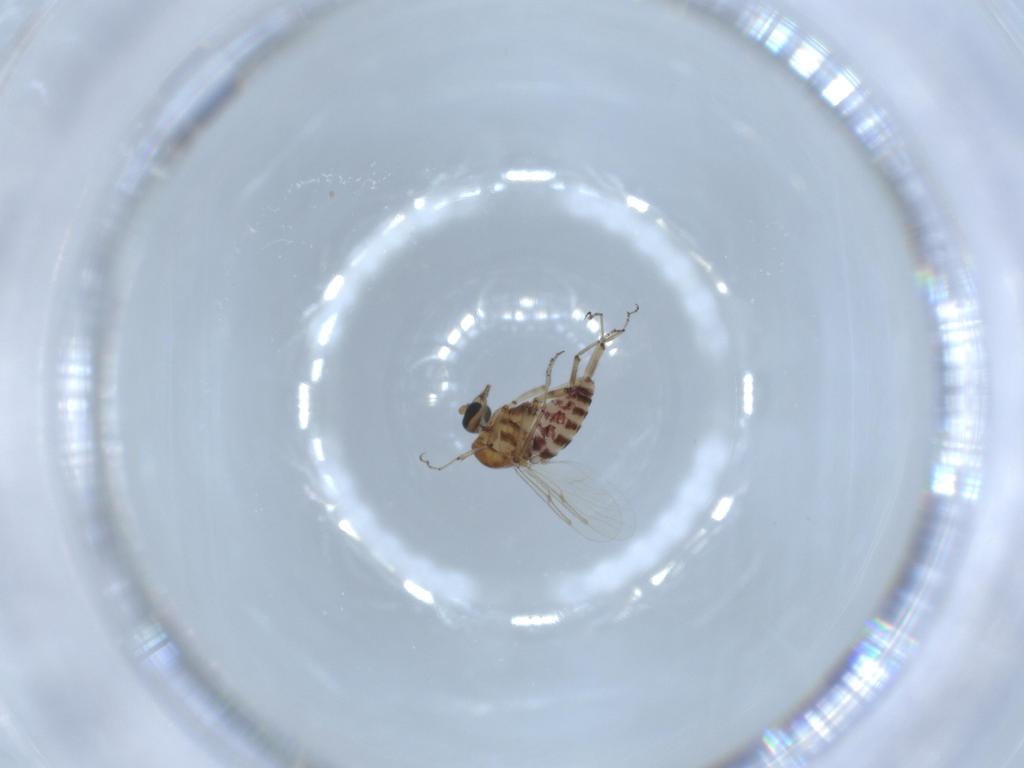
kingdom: Animalia
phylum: Arthropoda
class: Insecta
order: Diptera
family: Ceratopogonidae
